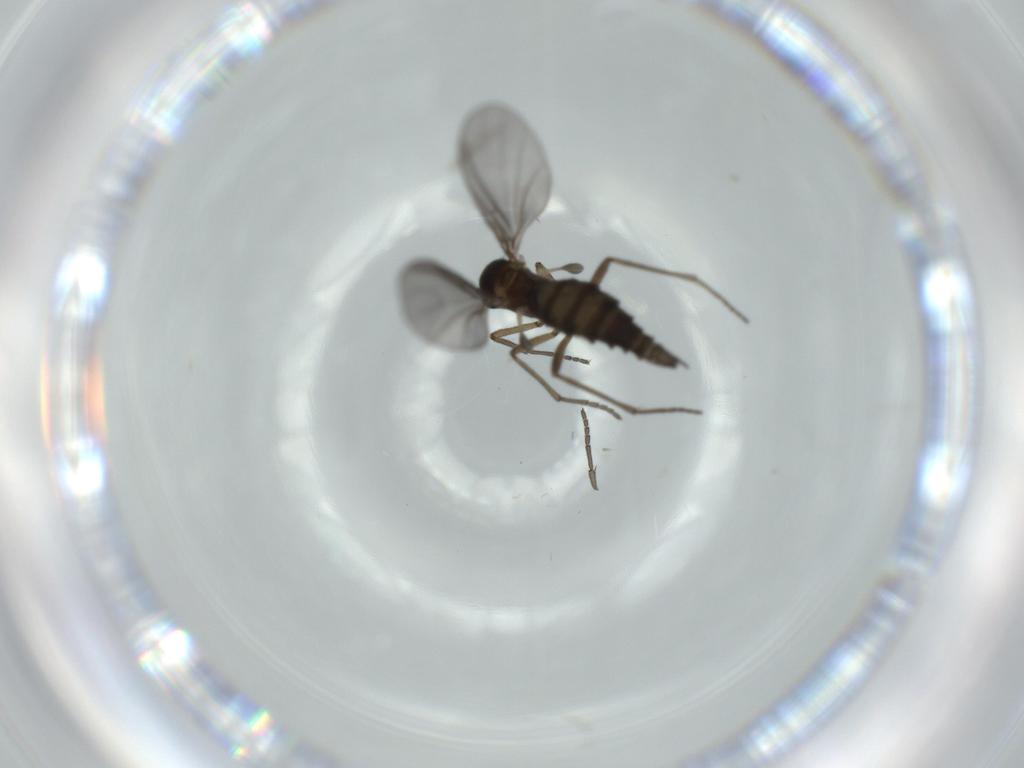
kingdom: Animalia
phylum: Arthropoda
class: Insecta
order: Diptera
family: Sciaridae
